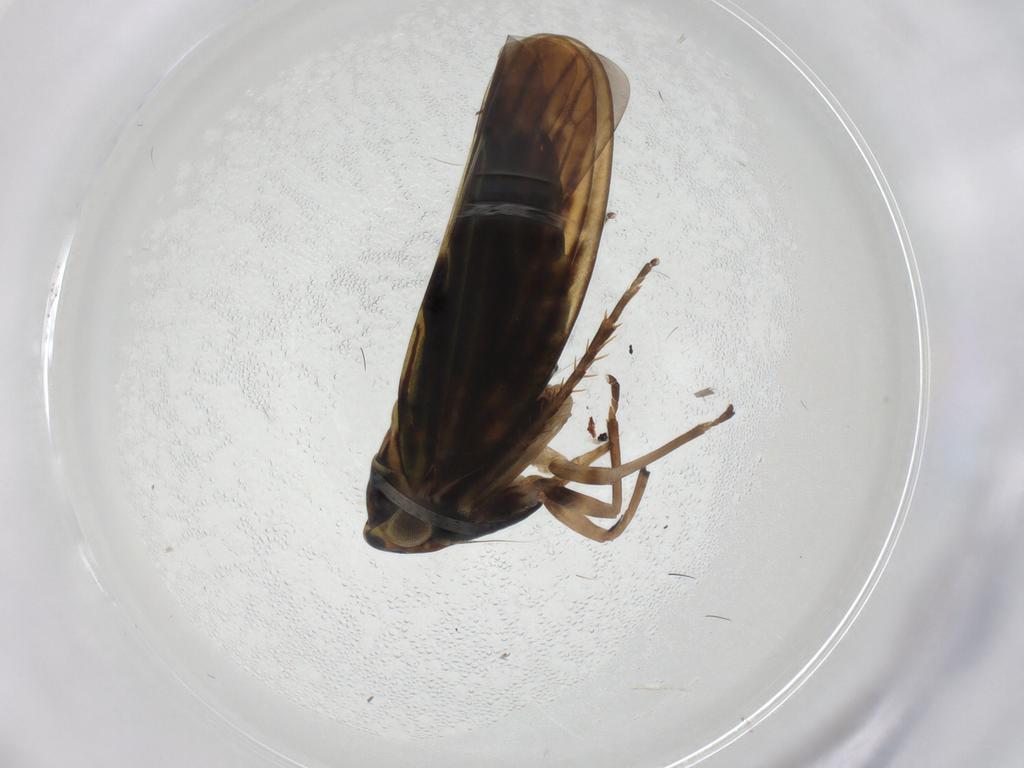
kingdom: Animalia
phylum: Arthropoda
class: Insecta
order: Hemiptera
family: Cicadellidae
